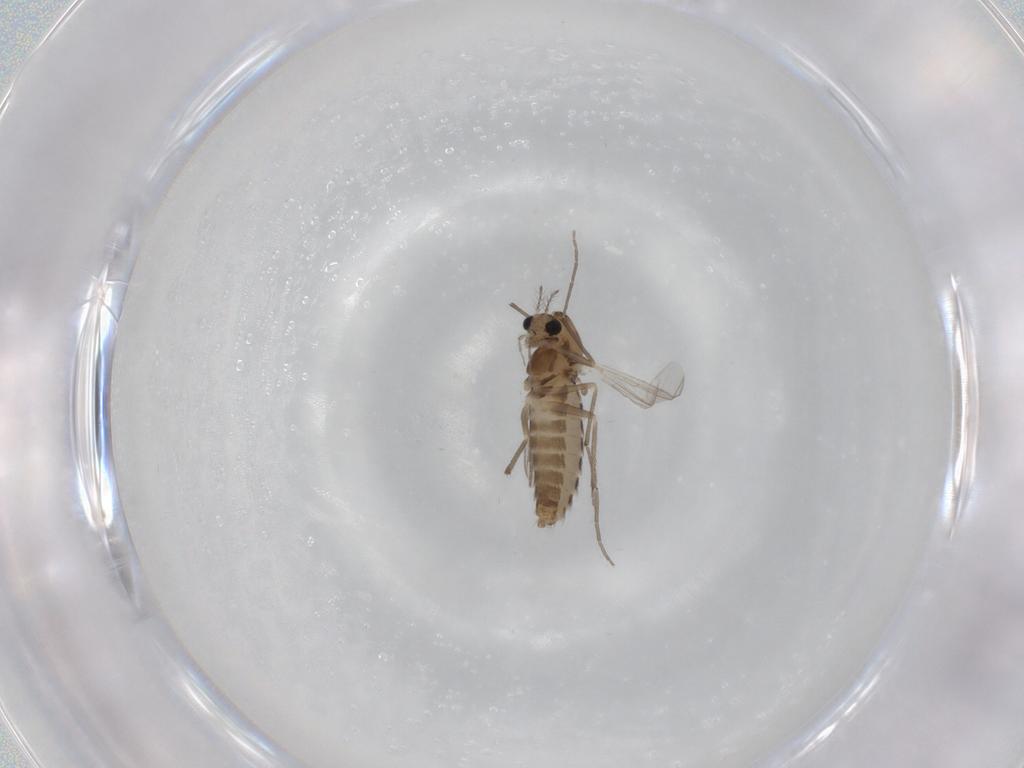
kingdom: Animalia
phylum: Arthropoda
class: Insecta
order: Diptera
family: Chironomidae
